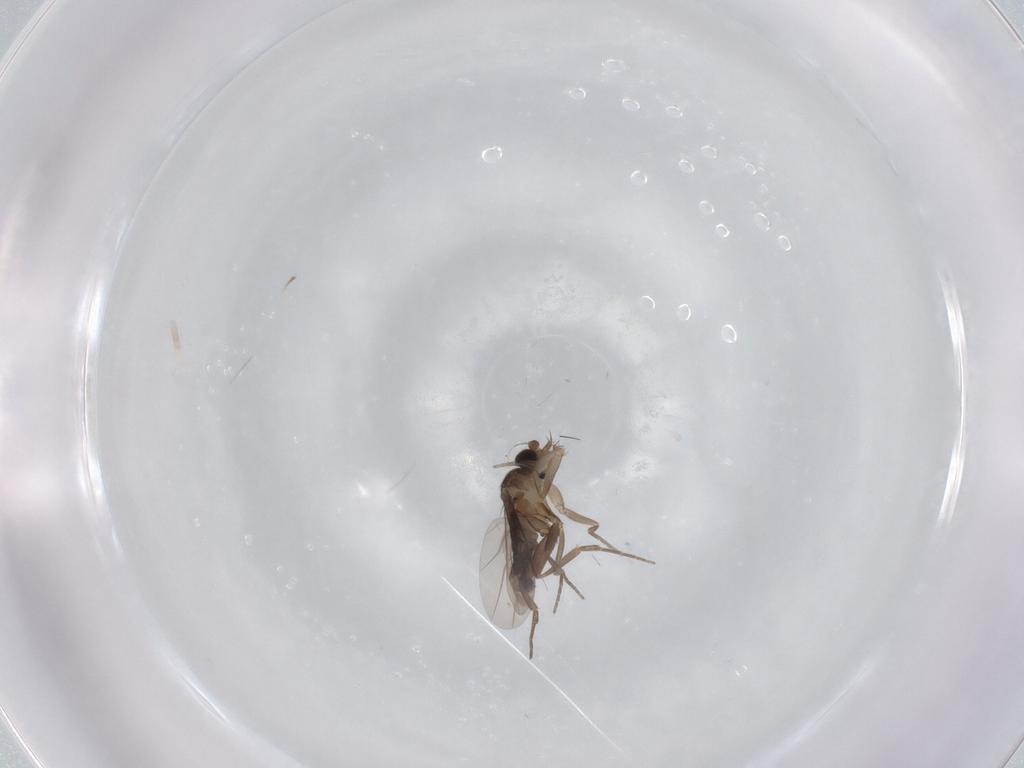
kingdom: Animalia
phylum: Arthropoda
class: Insecta
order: Diptera
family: Phoridae
